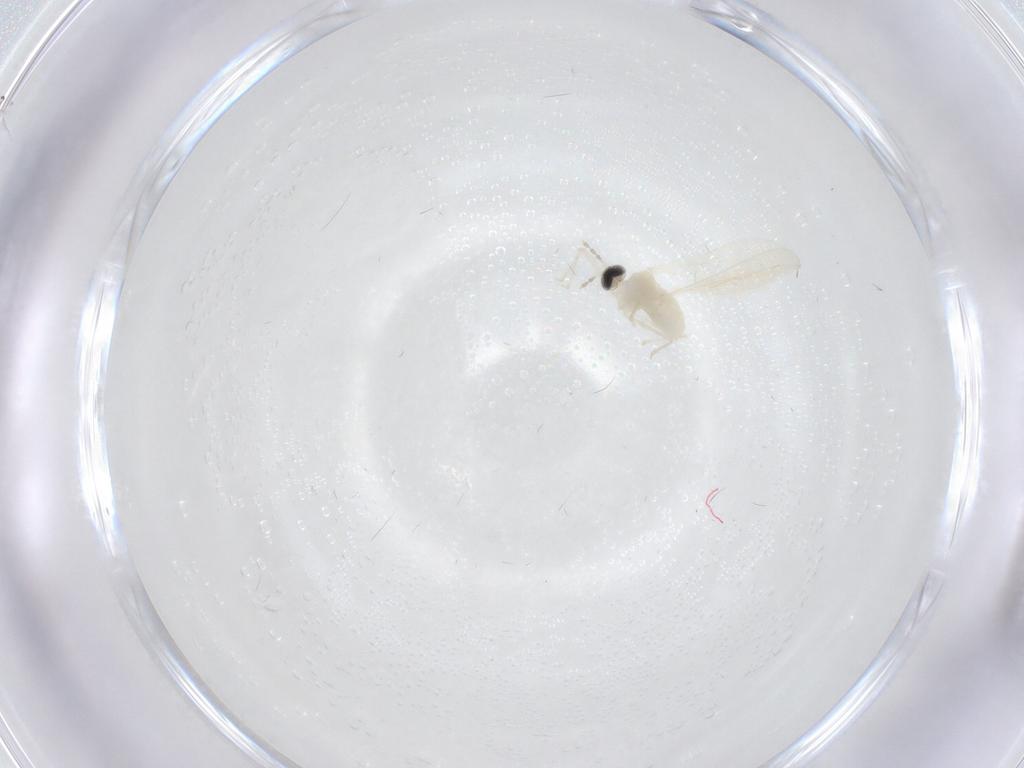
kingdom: Animalia
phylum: Arthropoda
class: Insecta
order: Diptera
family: Cecidomyiidae
